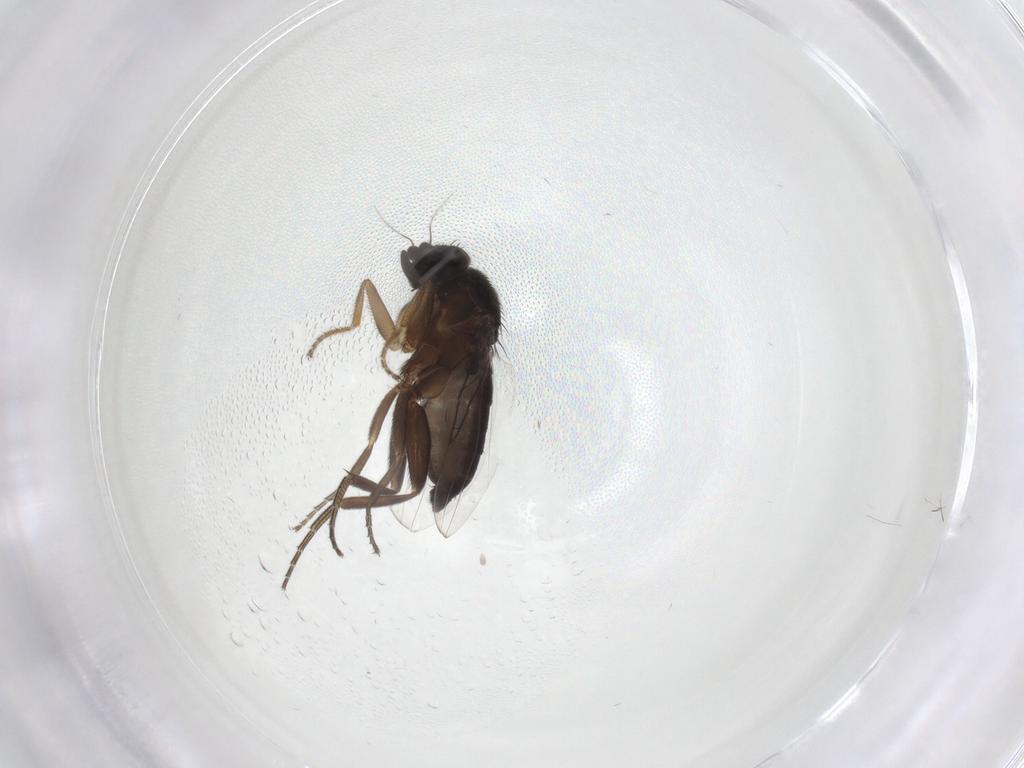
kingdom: Animalia
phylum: Arthropoda
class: Insecta
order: Diptera
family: Phoridae
